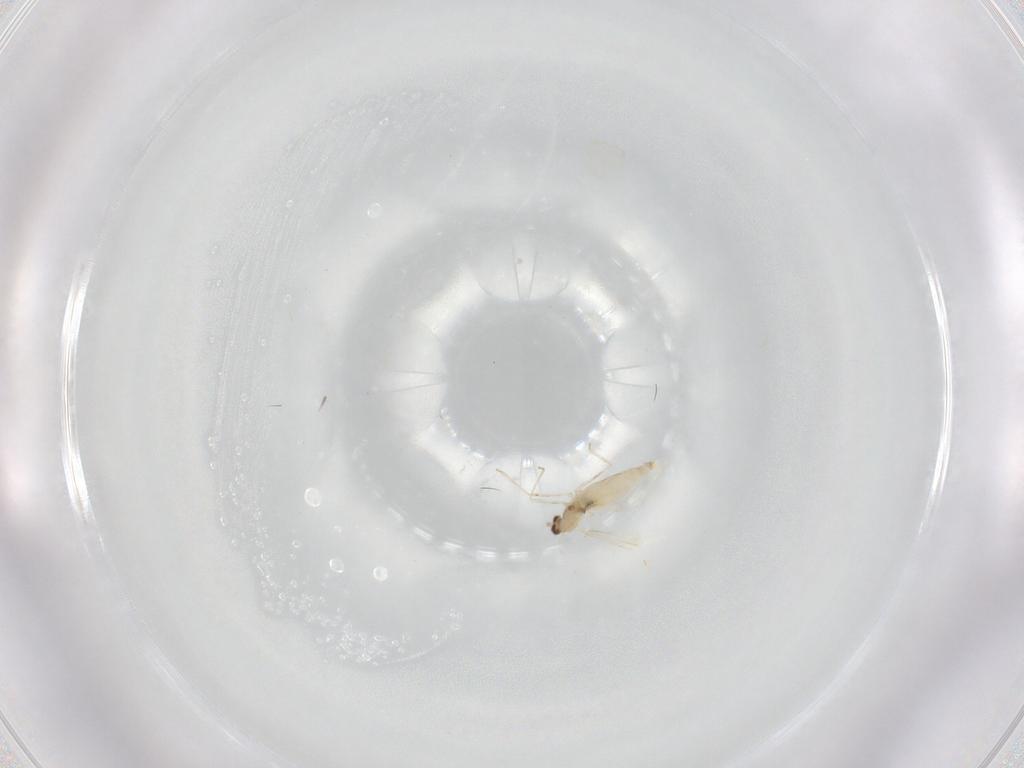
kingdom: Animalia
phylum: Arthropoda
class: Insecta
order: Diptera
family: Cecidomyiidae
